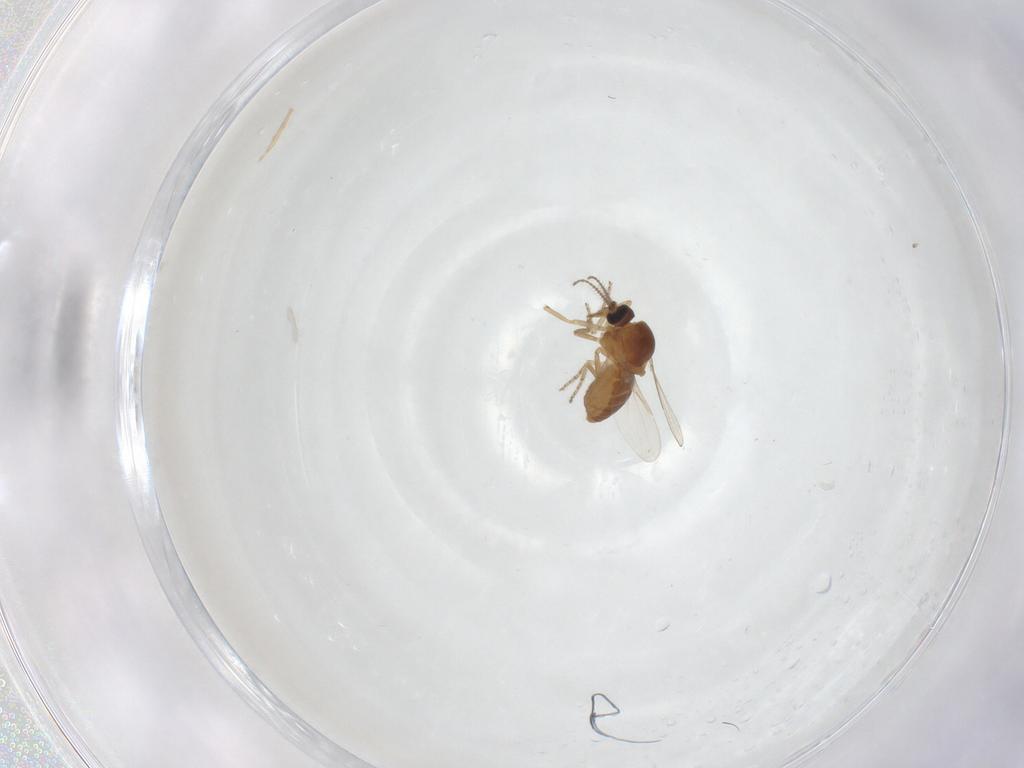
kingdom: Animalia
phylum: Arthropoda
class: Insecta
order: Diptera
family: Ceratopogonidae
